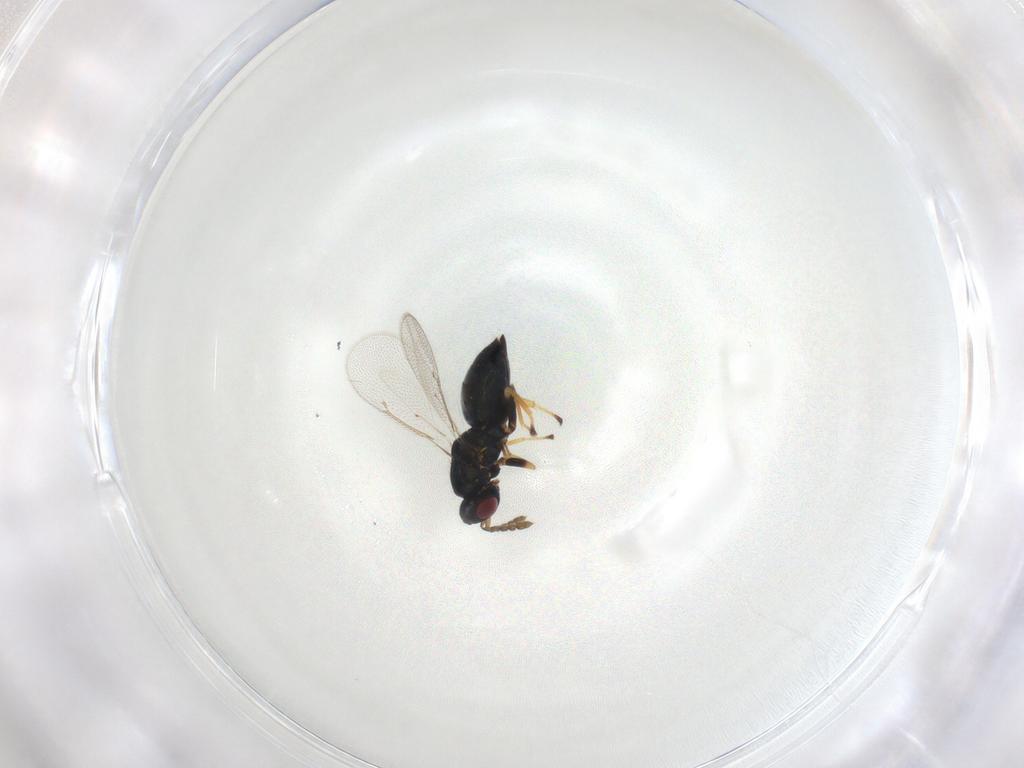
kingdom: Animalia
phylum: Arthropoda
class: Insecta
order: Hymenoptera
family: Eulophidae
